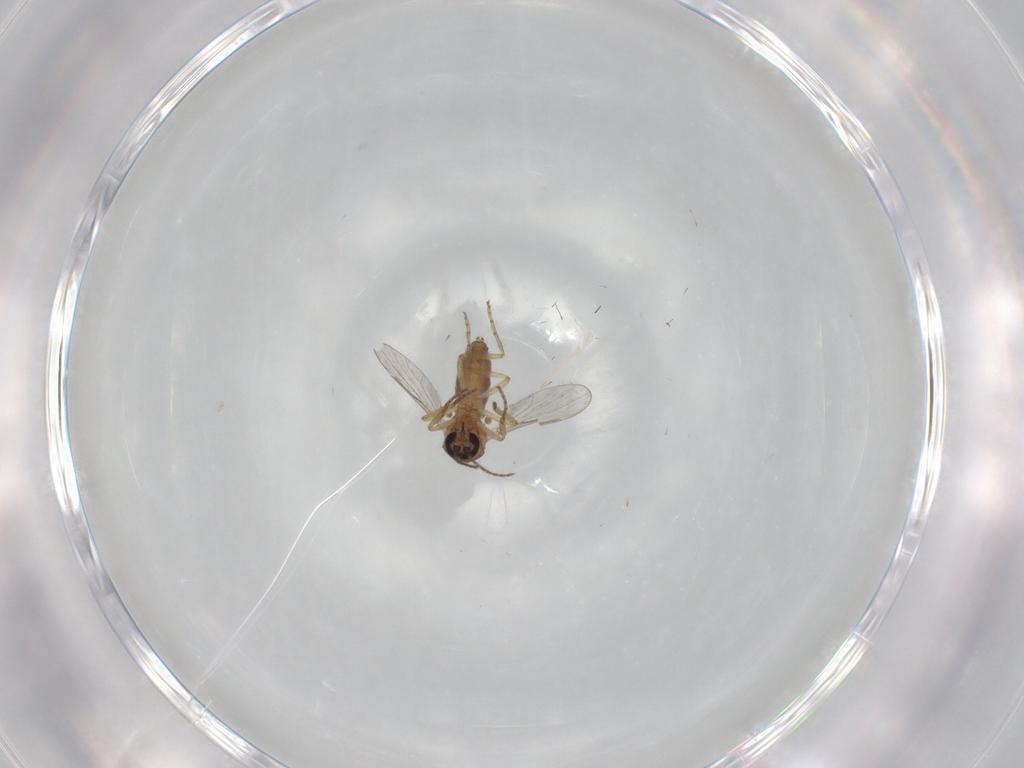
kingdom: Animalia
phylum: Arthropoda
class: Insecta
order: Diptera
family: Ceratopogonidae
